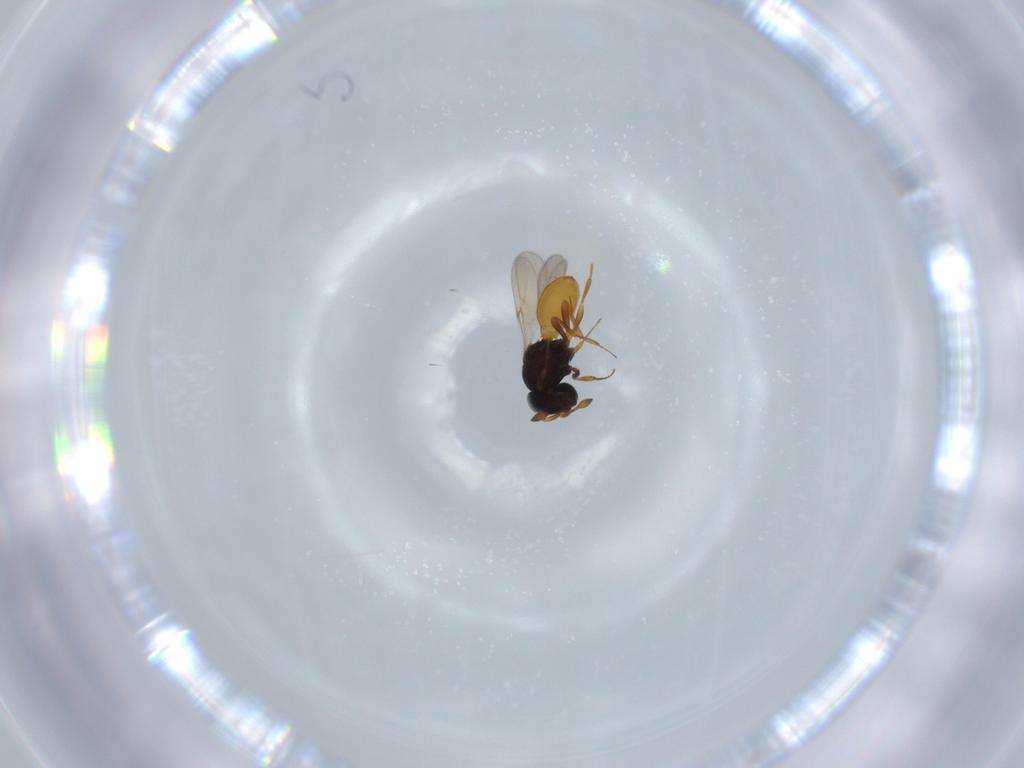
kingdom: Animalia
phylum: Arthropoda
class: Insecta
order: Hymenoptera
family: Scelionidae
